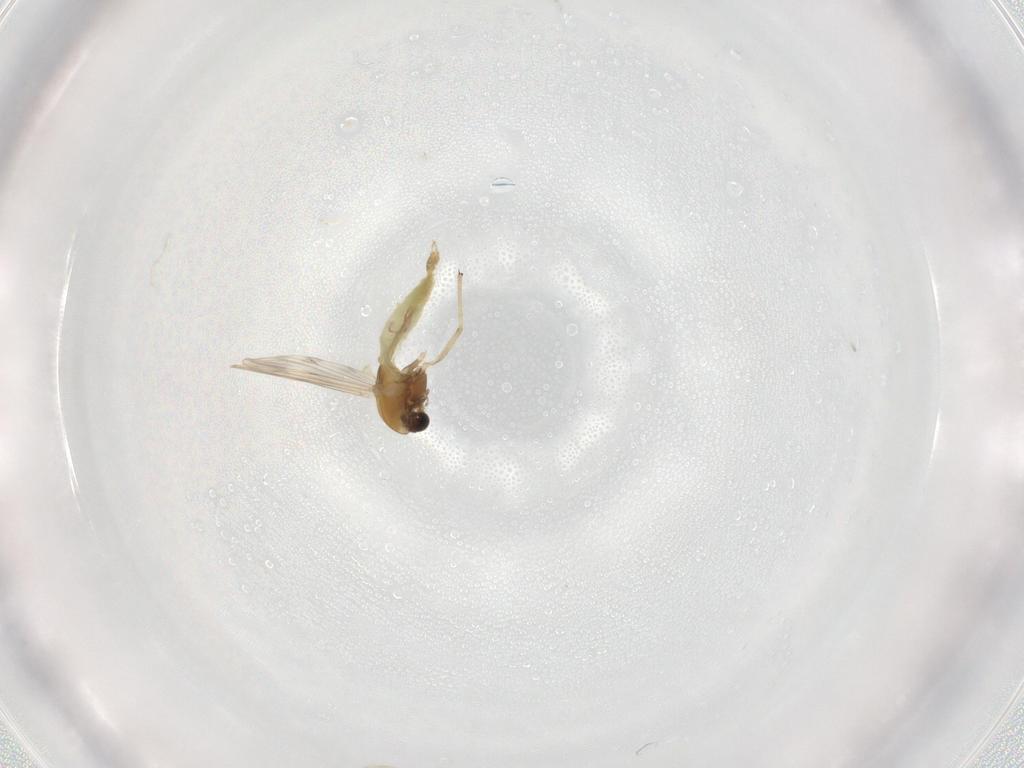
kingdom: Animalia
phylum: Arthropoda
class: Insecta
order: Diptera
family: Chironomidae
